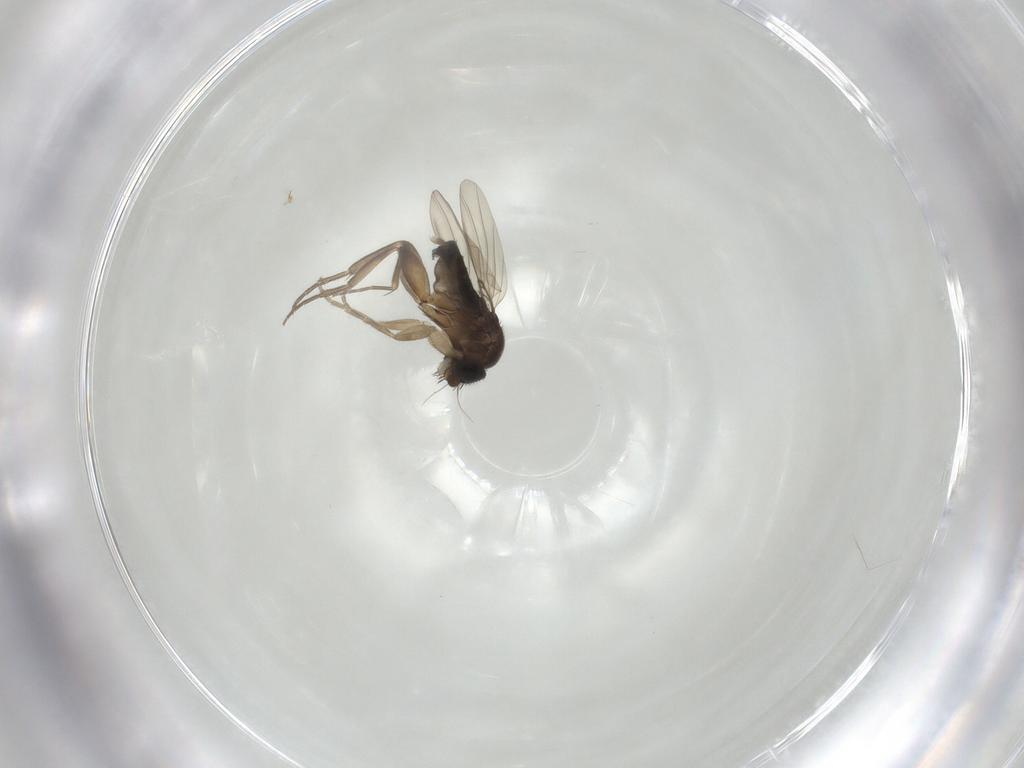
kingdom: Animalia
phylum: Arthropoda
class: Insecta
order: Diptera
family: Phoridae
